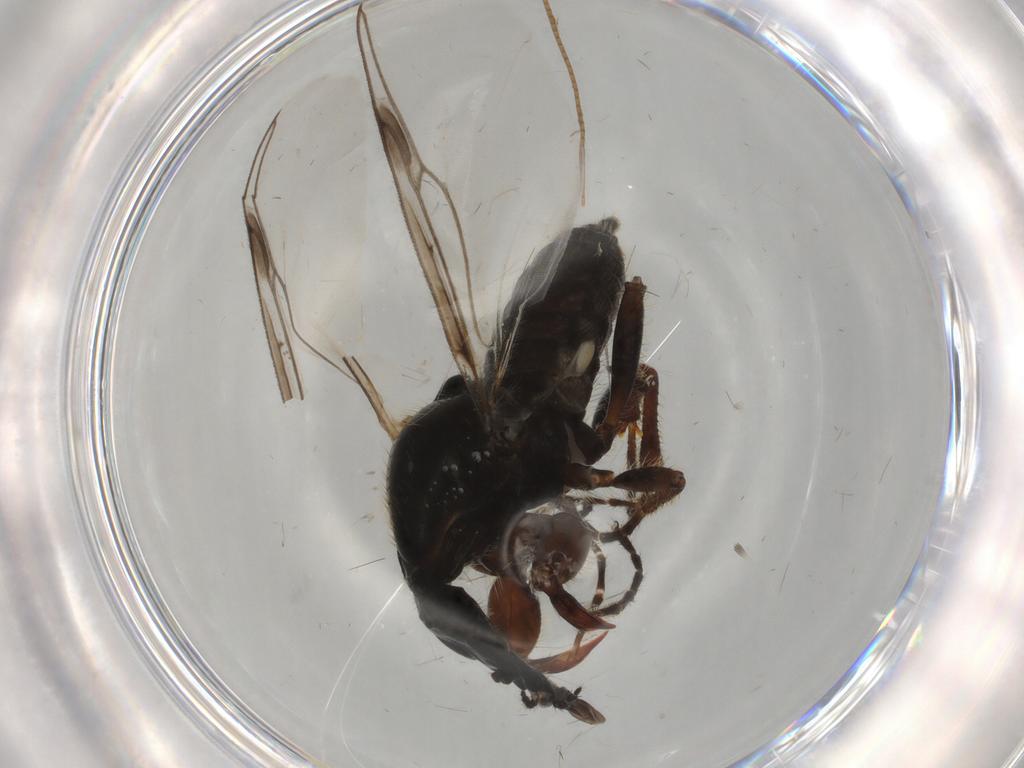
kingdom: Animalia
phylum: Arthropoda
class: Insecta
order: Diptera
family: Bibionidae
